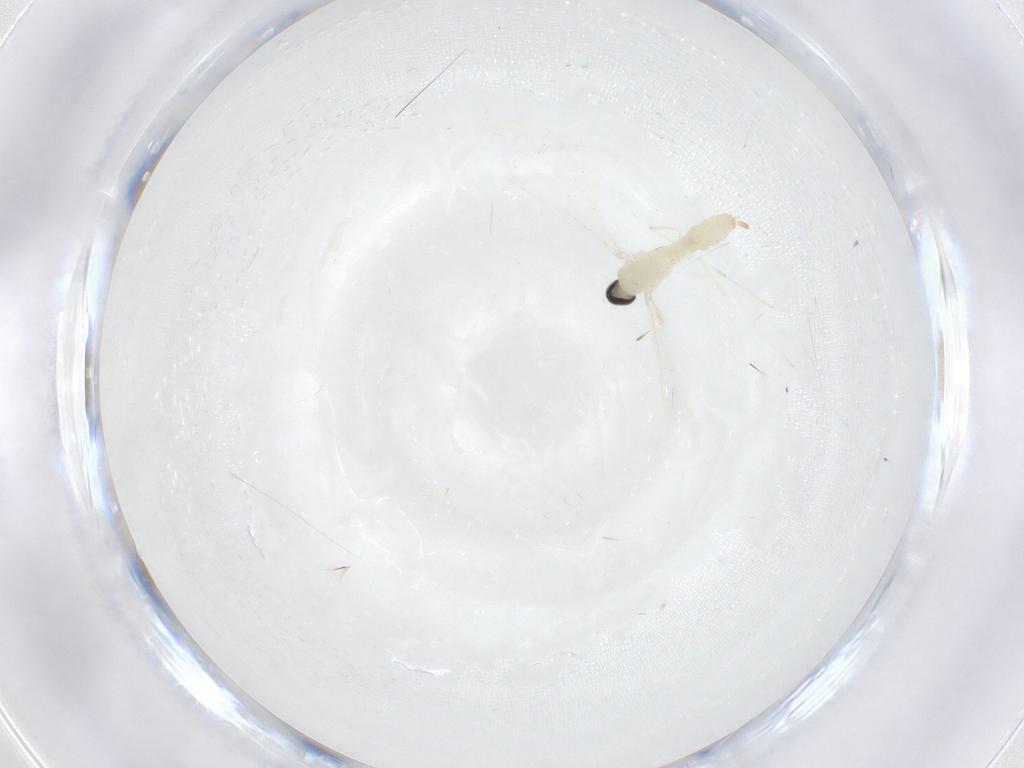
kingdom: Animalia
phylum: Arthropoda
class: Insecta
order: Diptera
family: Cecidomyiidae
